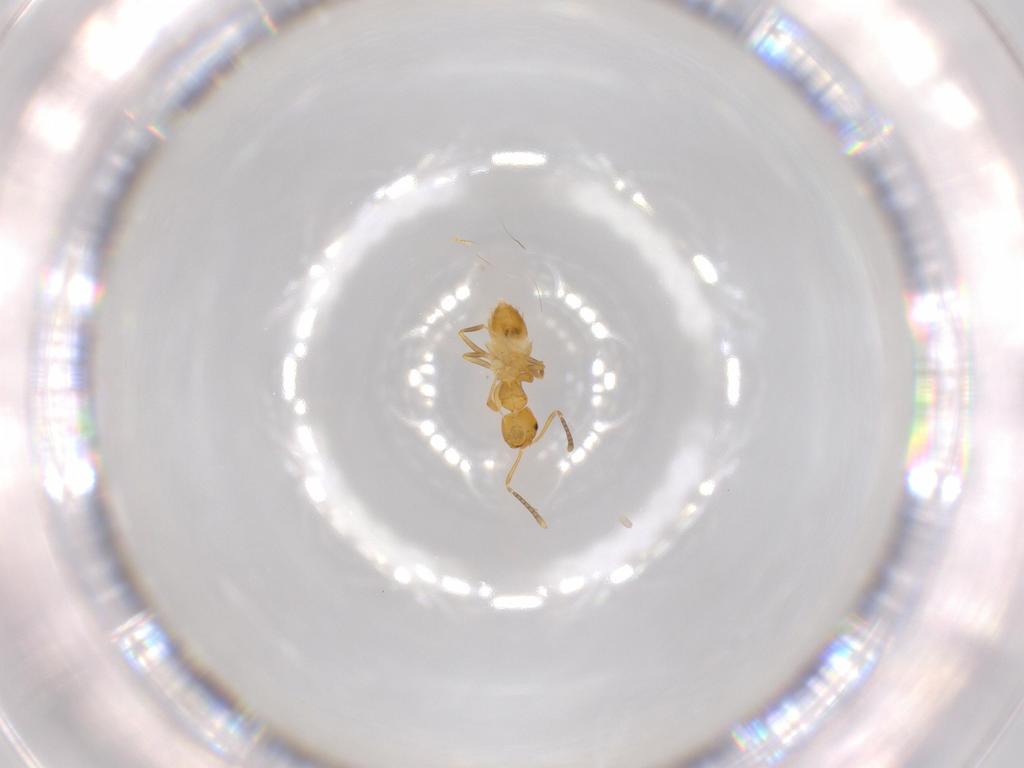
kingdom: Animalia
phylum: Arthropoda
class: Insecta
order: Hymenoptera
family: Formicidae
